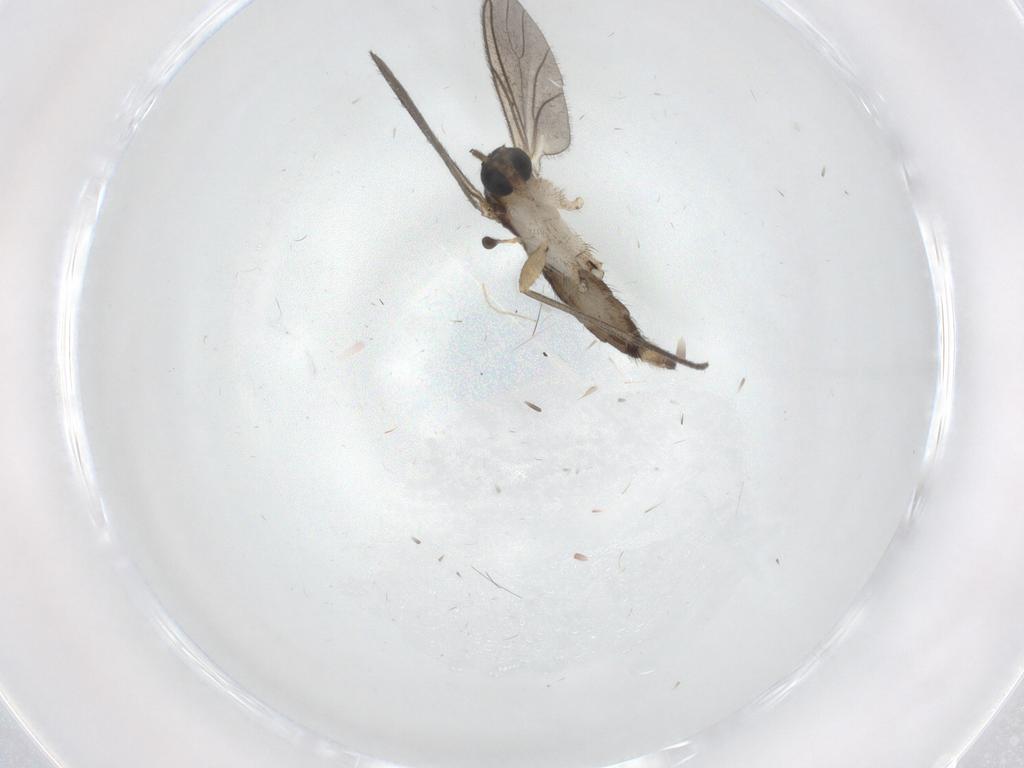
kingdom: Animalia
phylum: Arthropoda
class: Insecta
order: Diptera
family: Sciaridae
